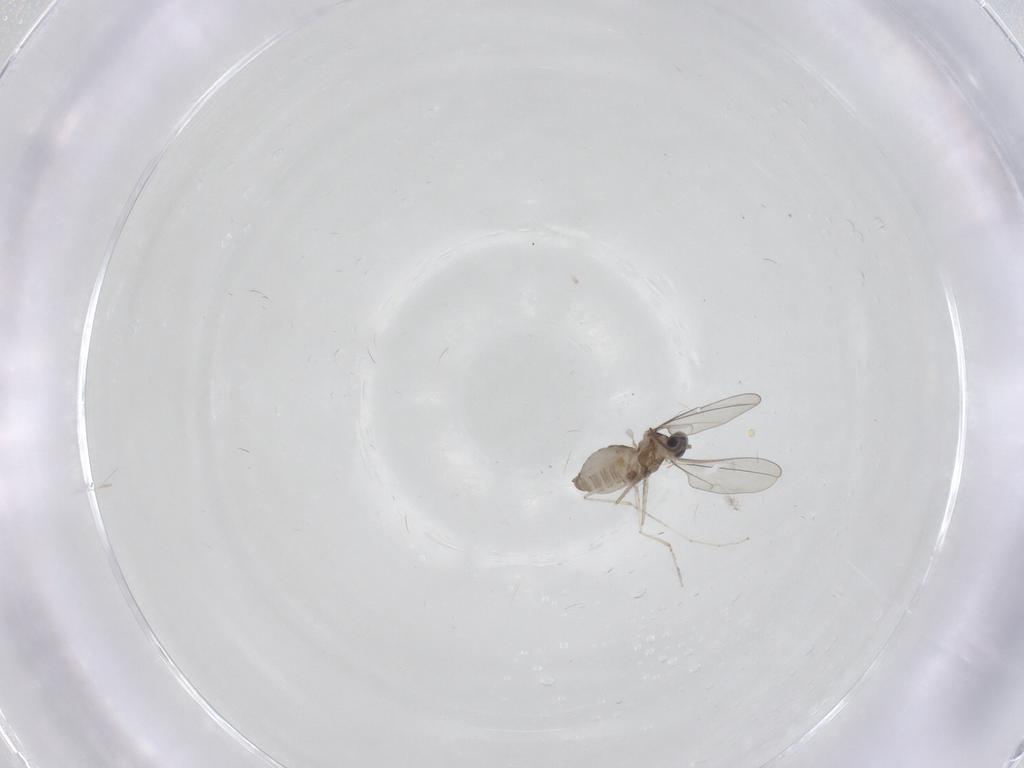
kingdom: Animalia
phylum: Arthropoda
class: Insecta
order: Diptera
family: Cecidomyiidae
